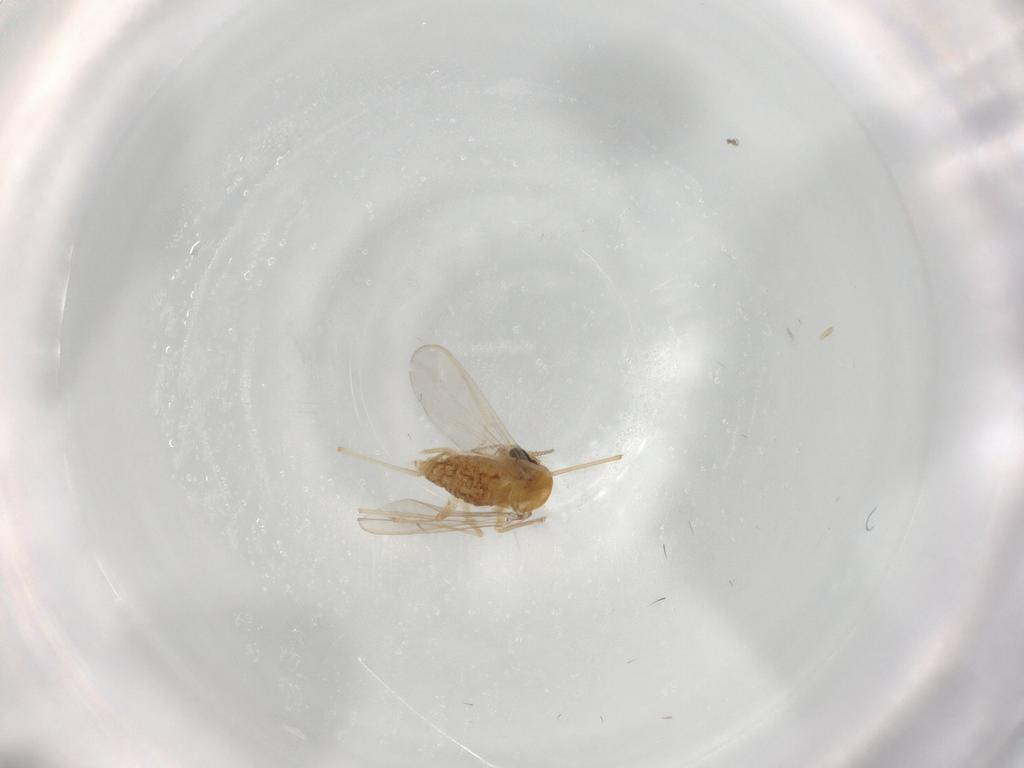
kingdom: Animalia
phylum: Arthropoda
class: Insecta
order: Diptera
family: Chironomidae
